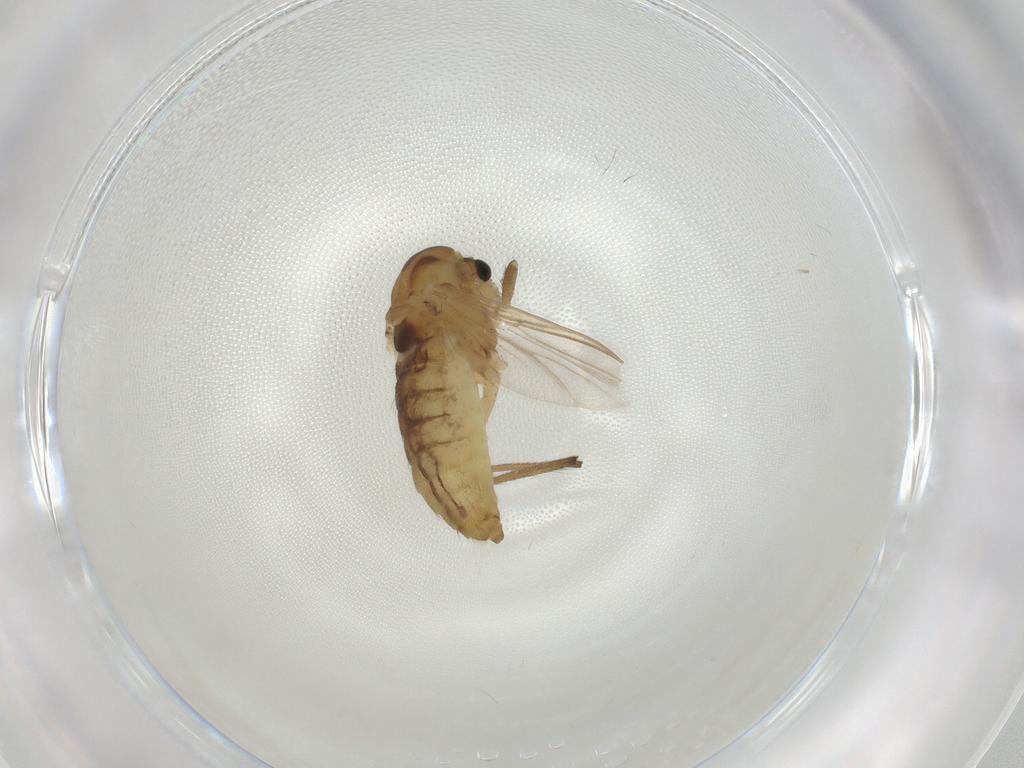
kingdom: Animalia
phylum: Arthropoda
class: Insecta
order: Diptera
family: Chironomidae
